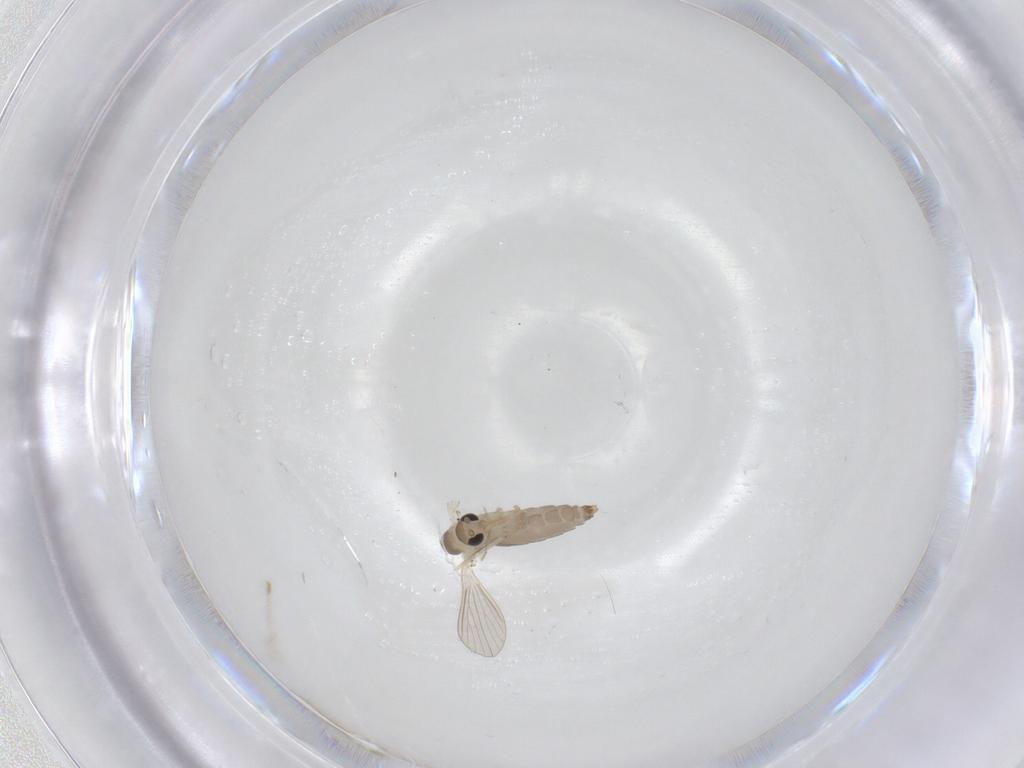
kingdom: Animalia
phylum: Arthropoda
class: Insecta
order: Diptera
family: Psychodidae
